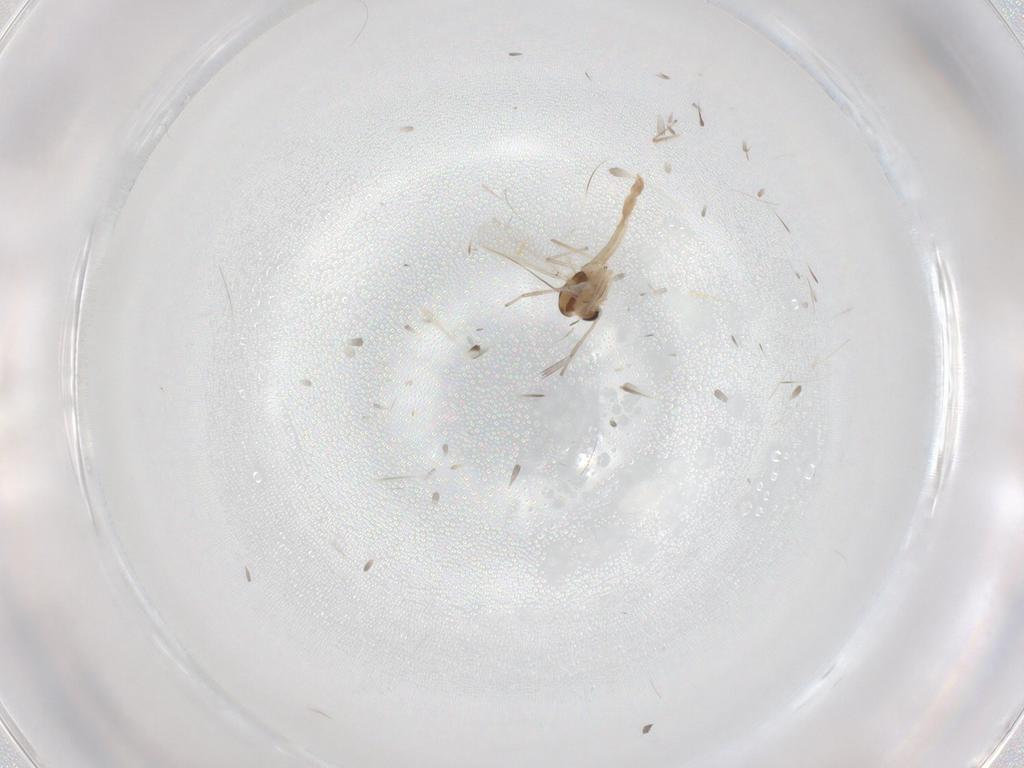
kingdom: Animalia
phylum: Arthropoda
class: Insecta
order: Diptera
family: Chironomidae
